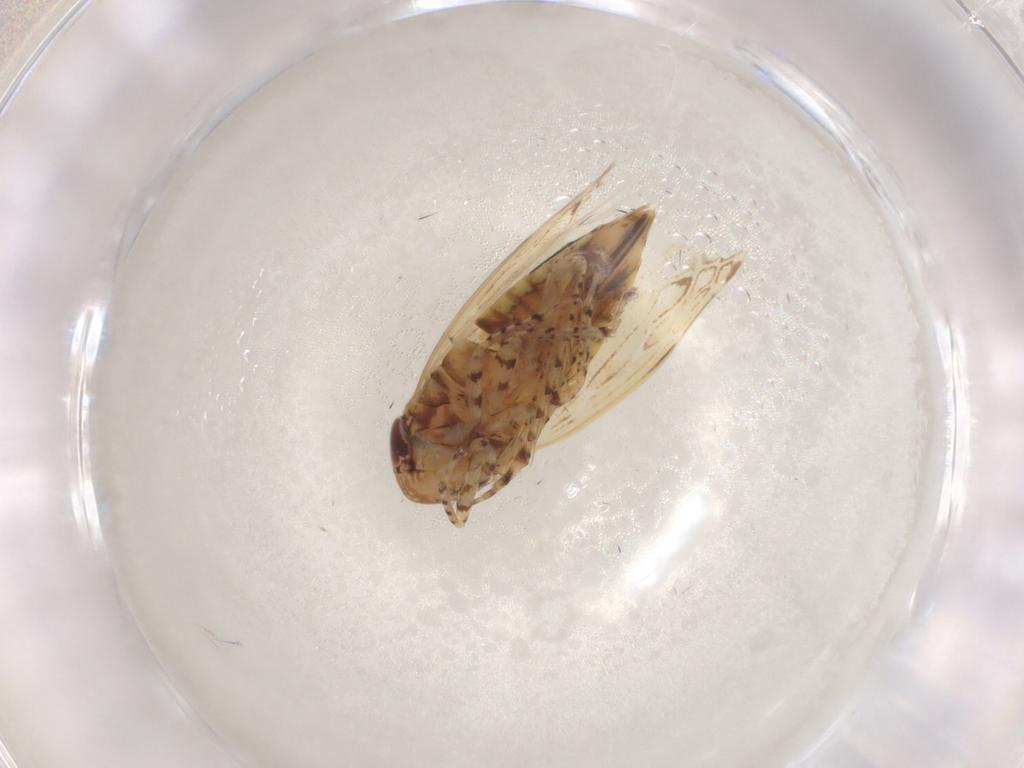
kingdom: Animalia
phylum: Arthropoda
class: Insecta
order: Hemiptera
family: Cicadellidae
